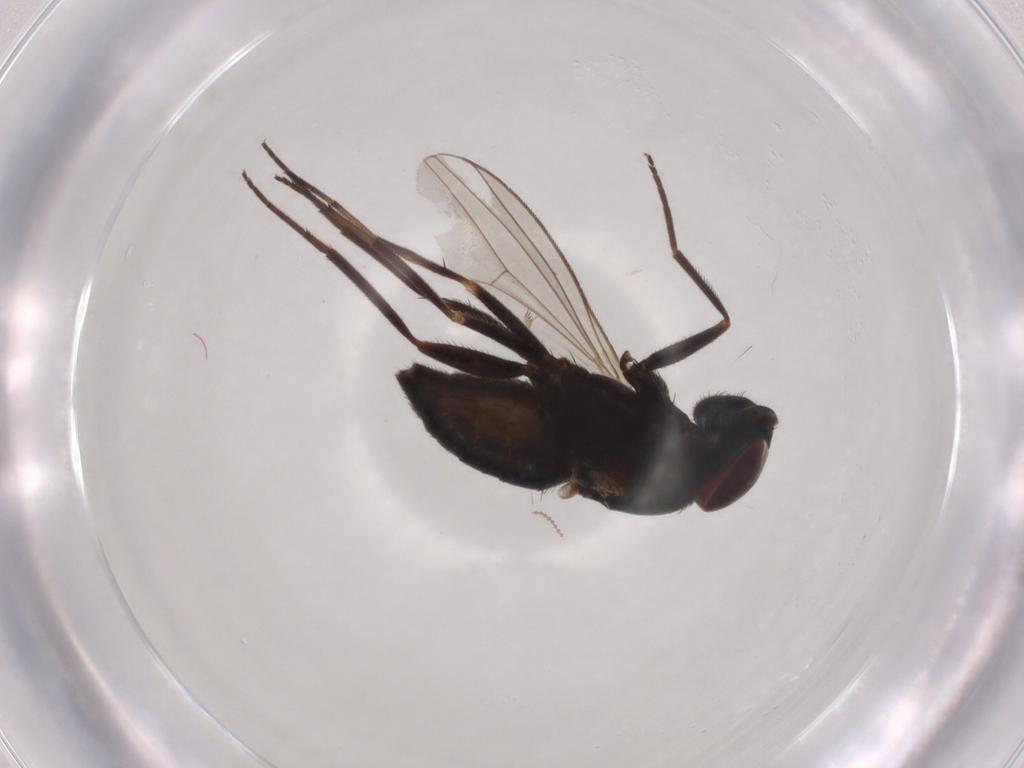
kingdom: Animalia
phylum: Arthropoda
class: Insecta
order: Diptera
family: Dolichopodidae
